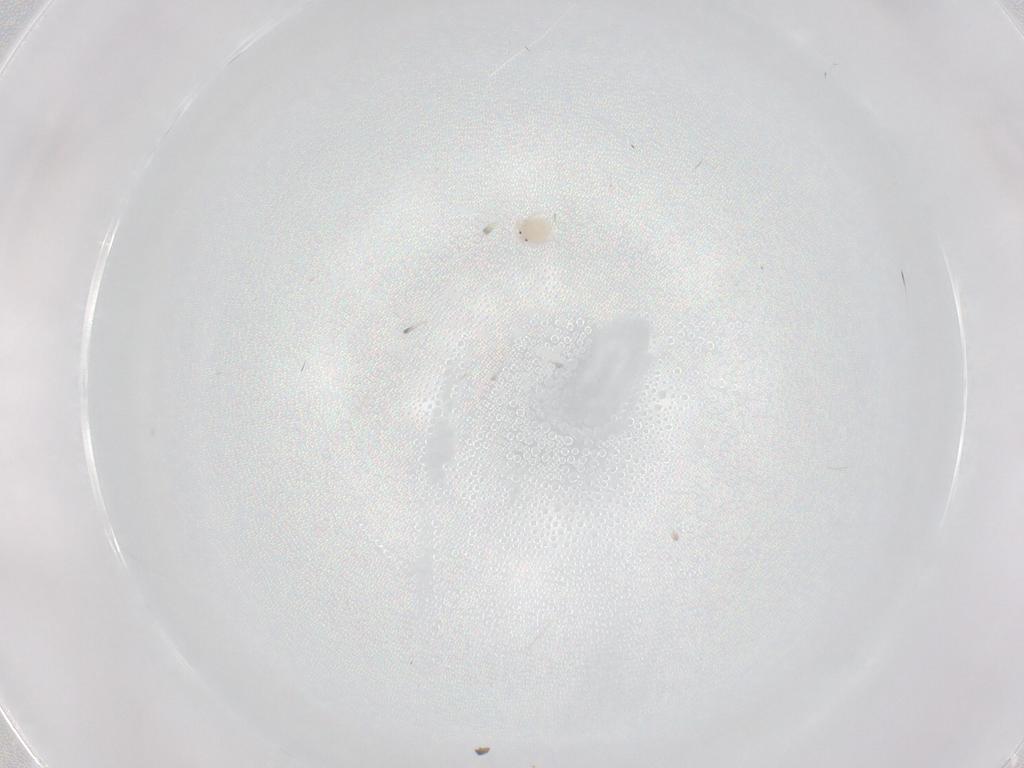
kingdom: Animalia
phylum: Arthropoda
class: Arachnida
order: Trombidiformes
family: Lebertiidae
